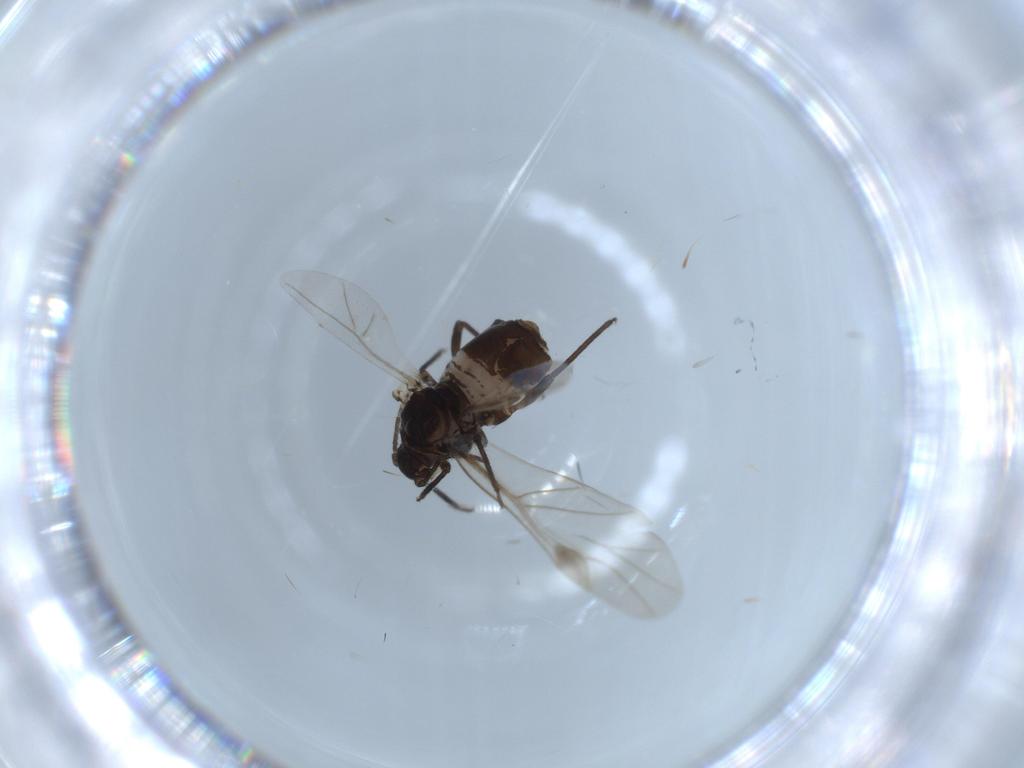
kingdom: Animalia
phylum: Arthropoda
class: Insecta
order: Hemiptera
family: Aphididae
